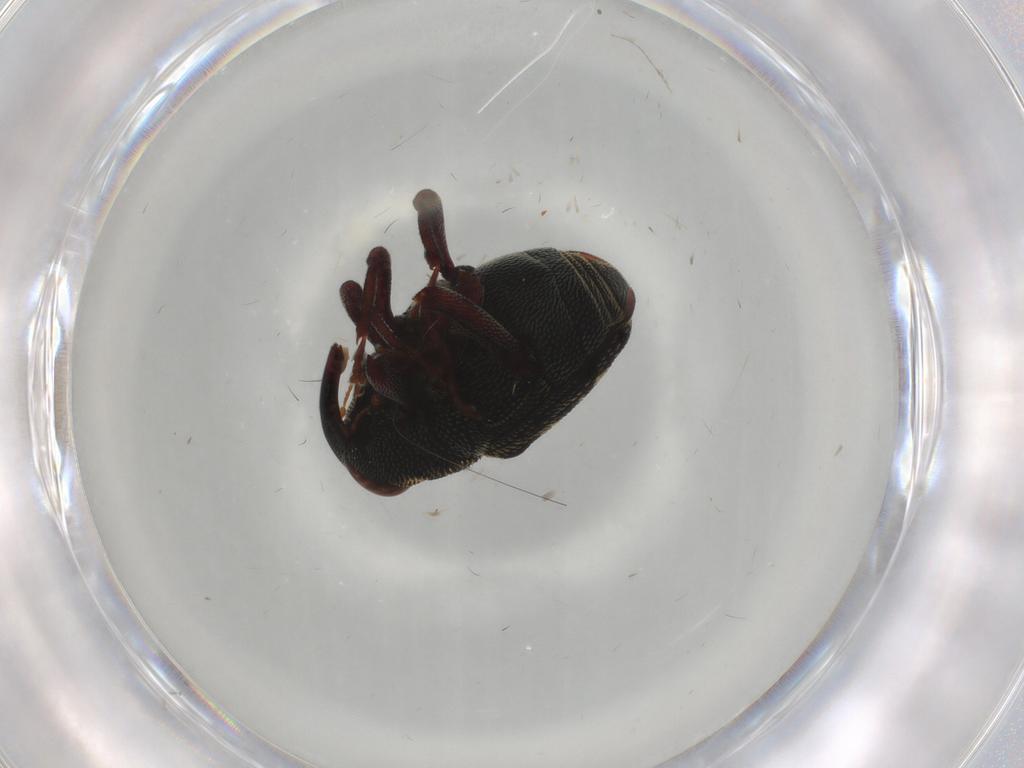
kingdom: Animalia
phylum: Arthropoda
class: Insecta
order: Coleoptera
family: Curculionidae
